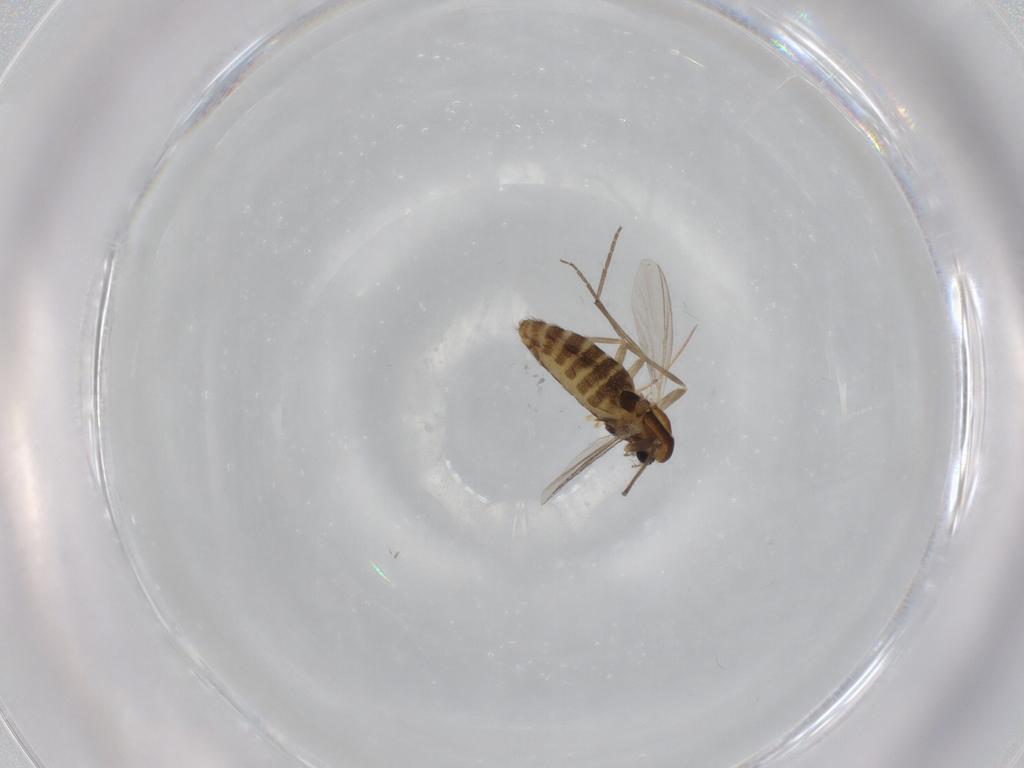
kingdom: Animalia
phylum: Arthropoda
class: Insecta
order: Diptera
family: Chironomidae
